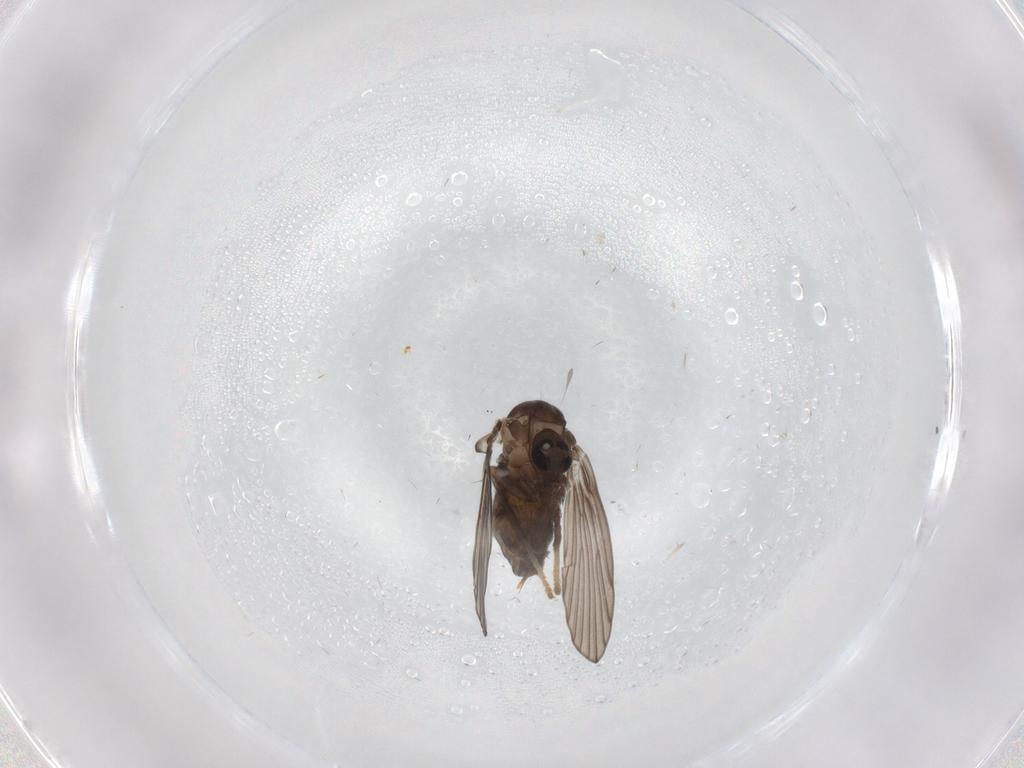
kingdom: Animalia
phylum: Arthropoda
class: Insecta
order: Diptera
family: Psychodidae
